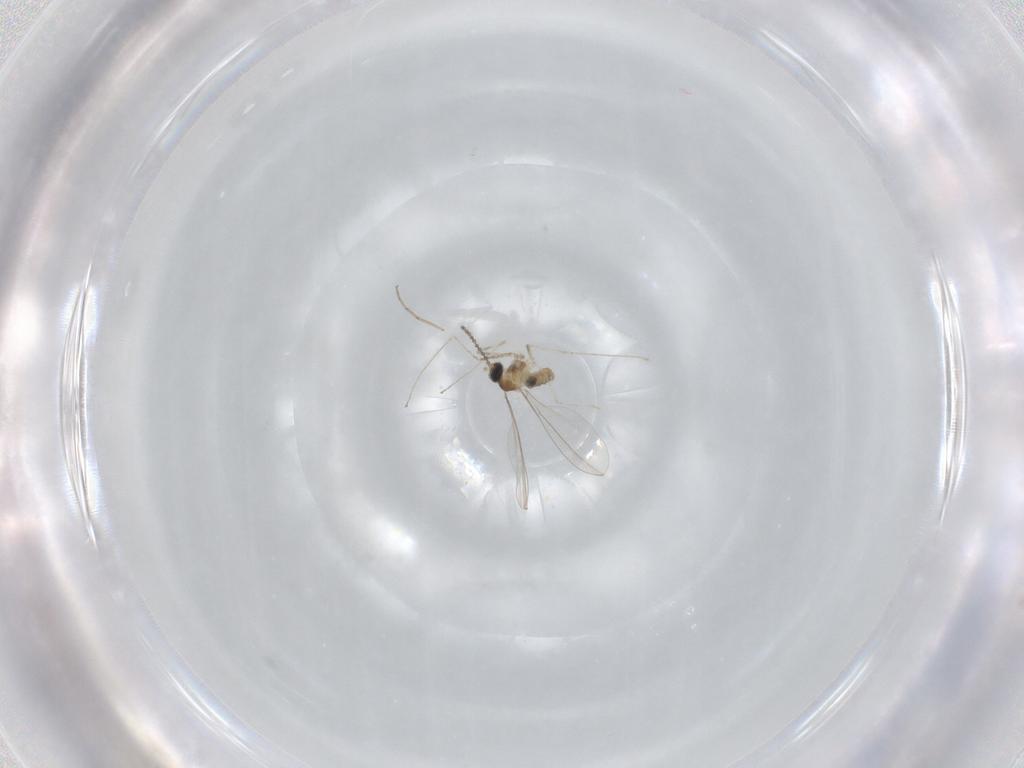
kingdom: Animalia
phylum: Arthropoda
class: Insecta
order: Diptera
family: Chironomidae
